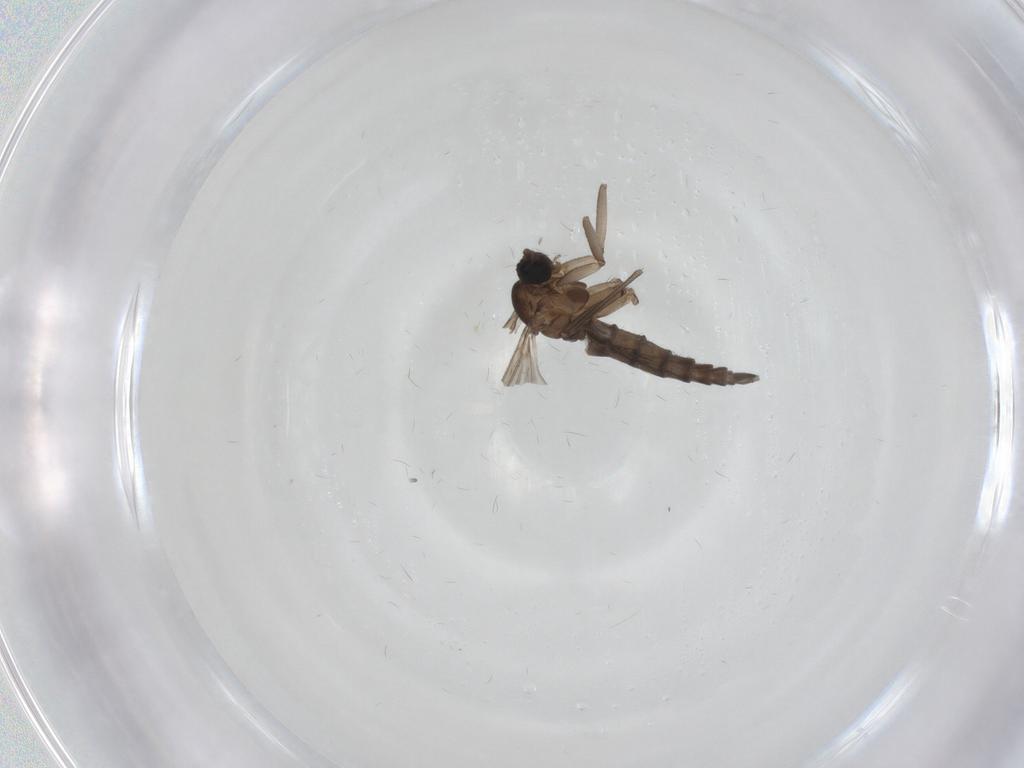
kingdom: Animalia
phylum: Arthropoda
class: Insecta
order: Diptera
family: Sciaridae
